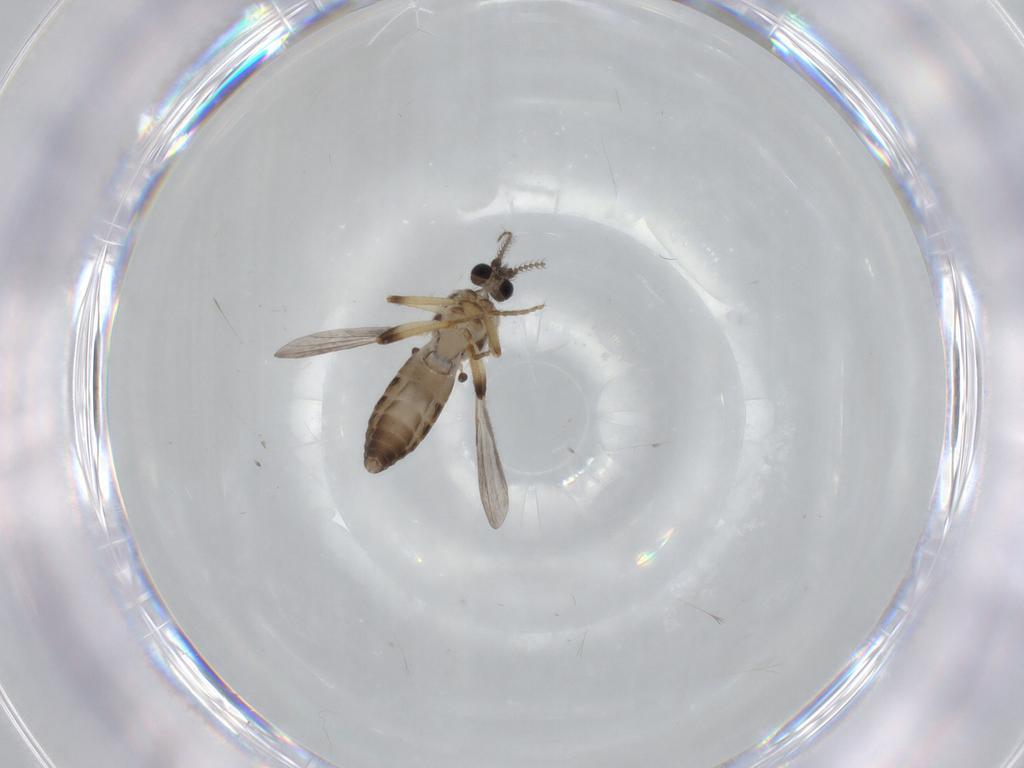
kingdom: Animalia
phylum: Arthropoda
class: Insecta
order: Diptera
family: Ceratopogonidae
